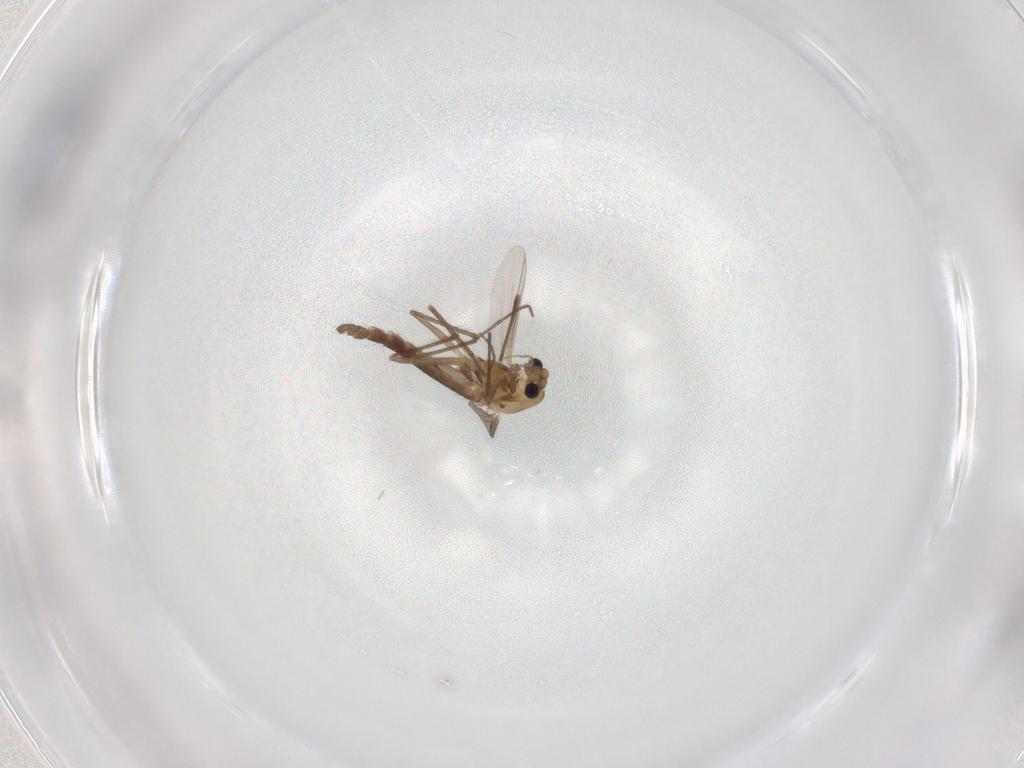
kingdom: Animalia
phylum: Arthropoda
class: Insecta
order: Diptera
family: Chironomidae
